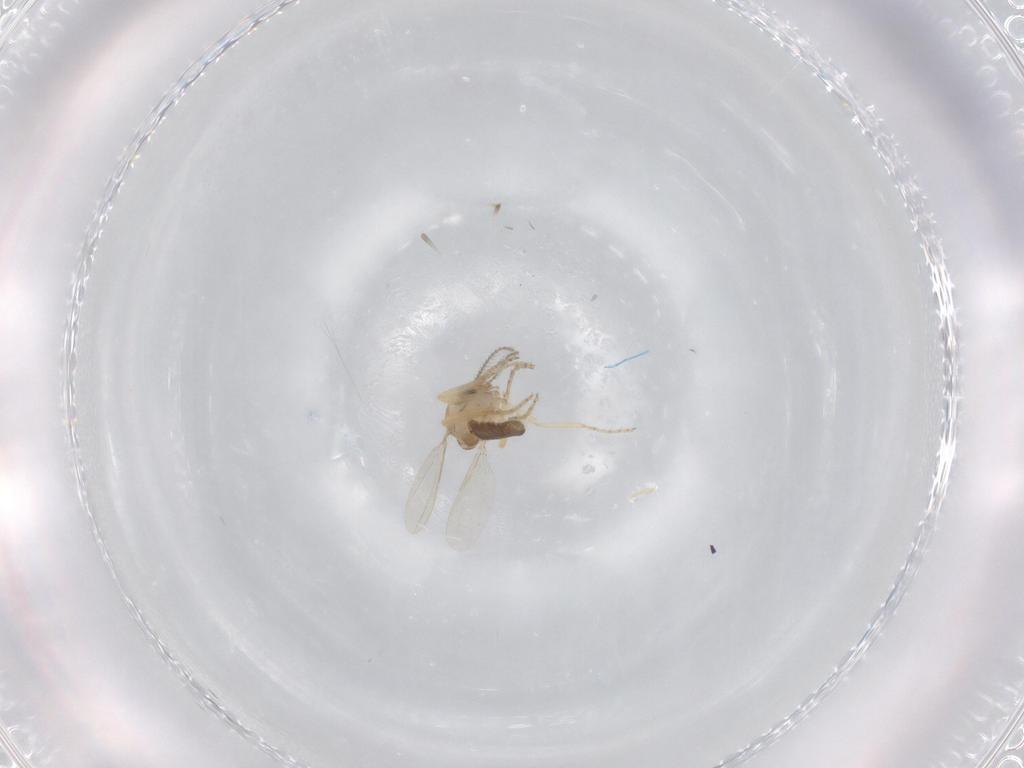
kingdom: Animalia
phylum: Arthropoda
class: Insecta
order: Diptera
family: Ceratopogonidae
